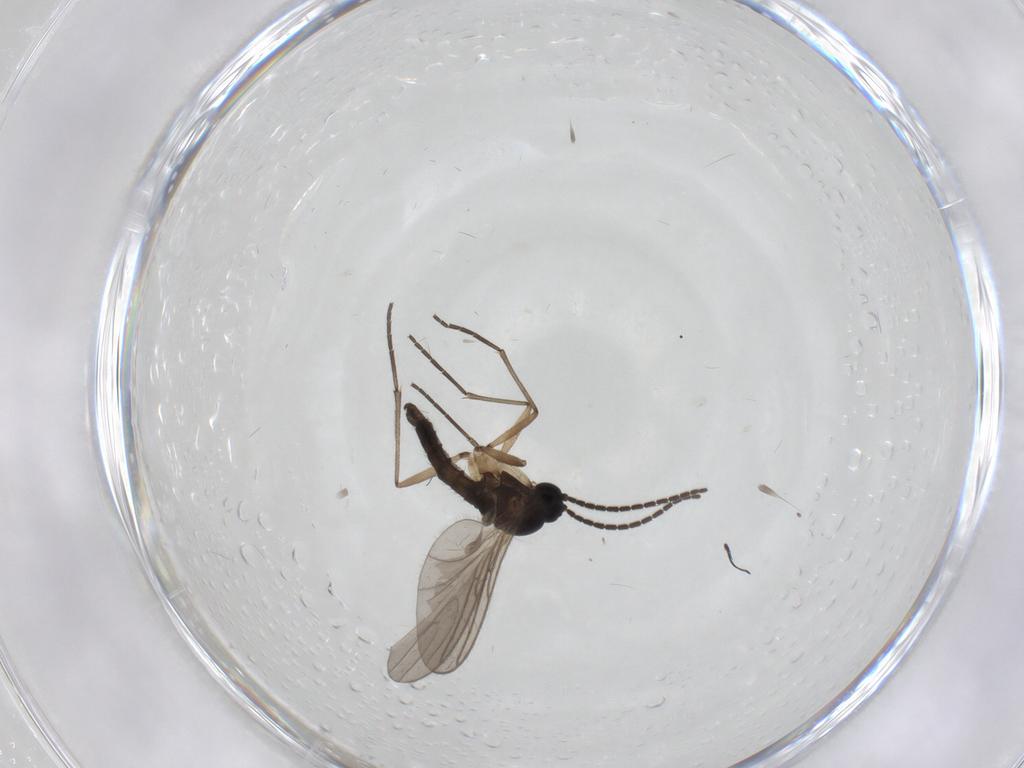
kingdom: Animalia
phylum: Arthropoda
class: Insecta
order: Diptera
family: Sciaridae
